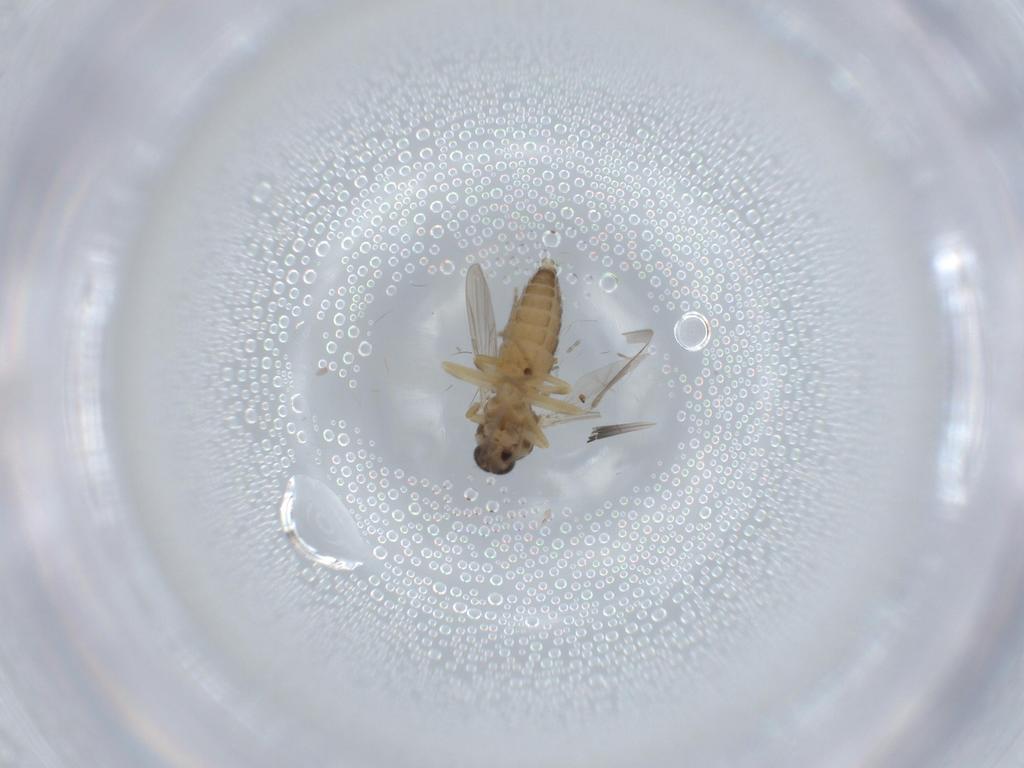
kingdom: Animalia
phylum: Arthropoda
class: Insecta
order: Diptera
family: Ceratopogonidae
